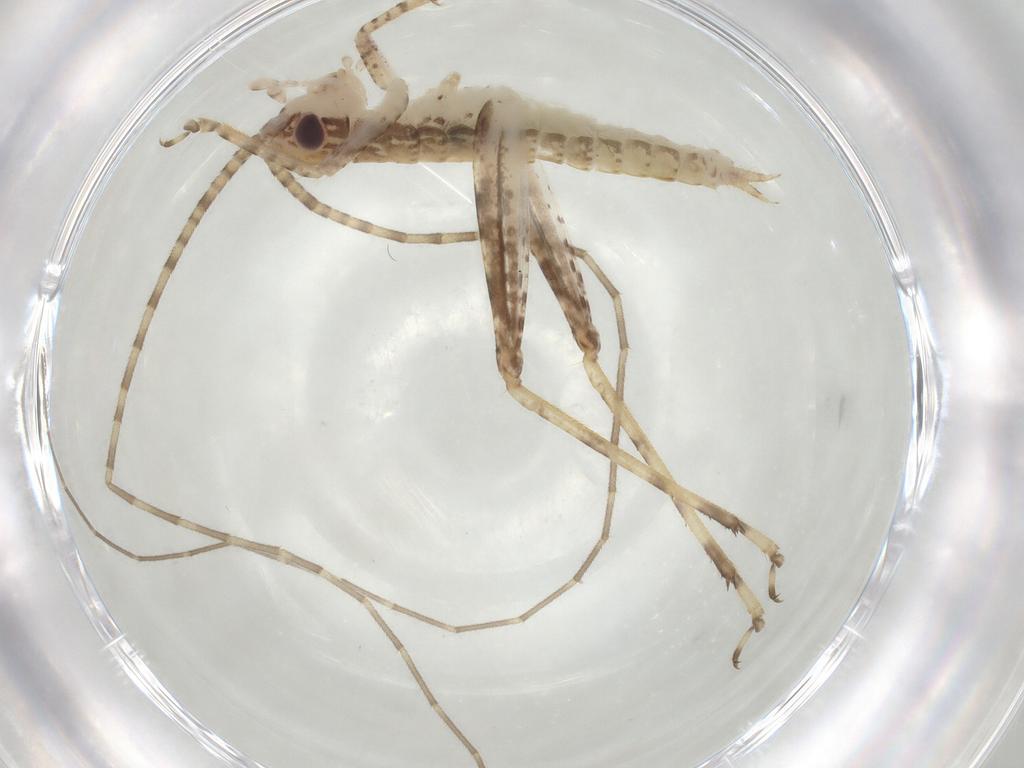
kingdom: Animalia
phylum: Arthropoda
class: Insecta
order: Orthoptera
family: Gryllidae
